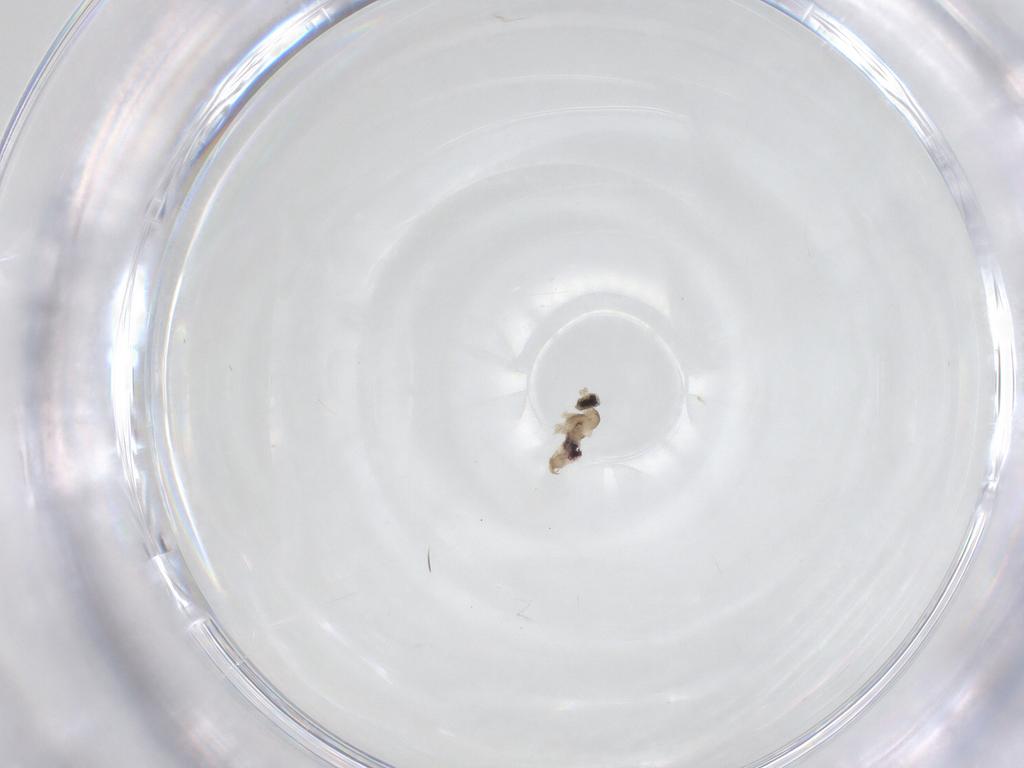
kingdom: Animalia
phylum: Arthropoda
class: Insecta
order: Diptera
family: Cecidomyiidae
